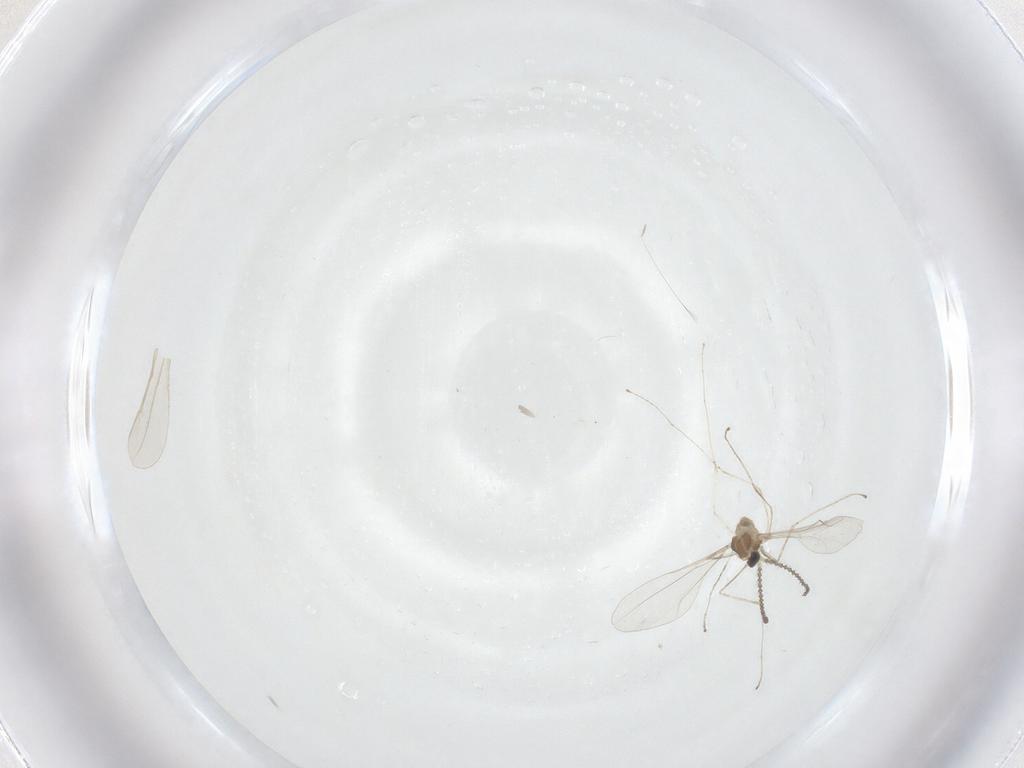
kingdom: Animalia
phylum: Arthropoda
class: Insecta
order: Diptera
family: Cecidomyiidae
